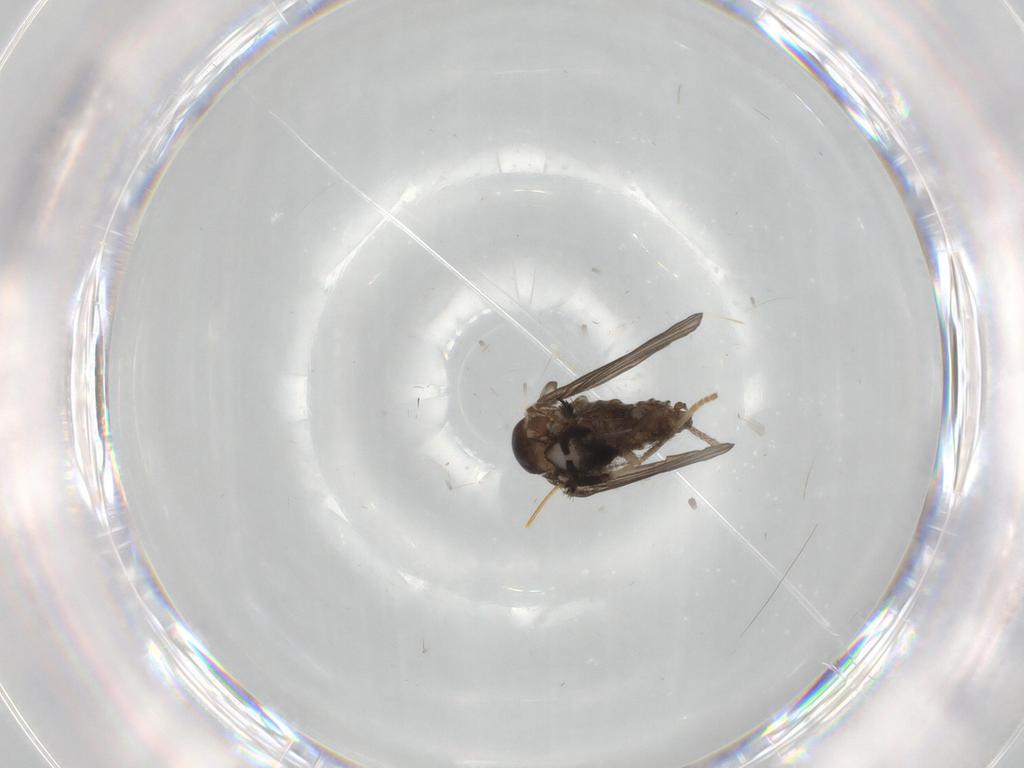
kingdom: Animalia
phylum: Arthropoda
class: Insecta
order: Diptera
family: Psychodidae
